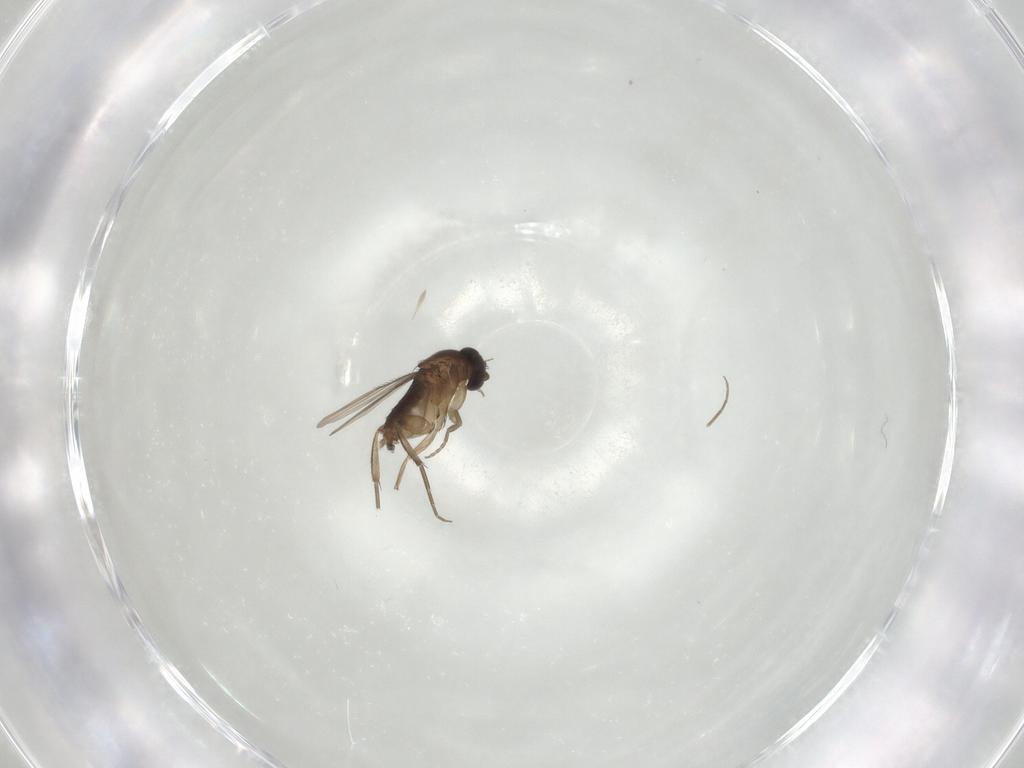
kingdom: Animalia
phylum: Arthropoda
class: Insecta
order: Diptera
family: Phoridae
